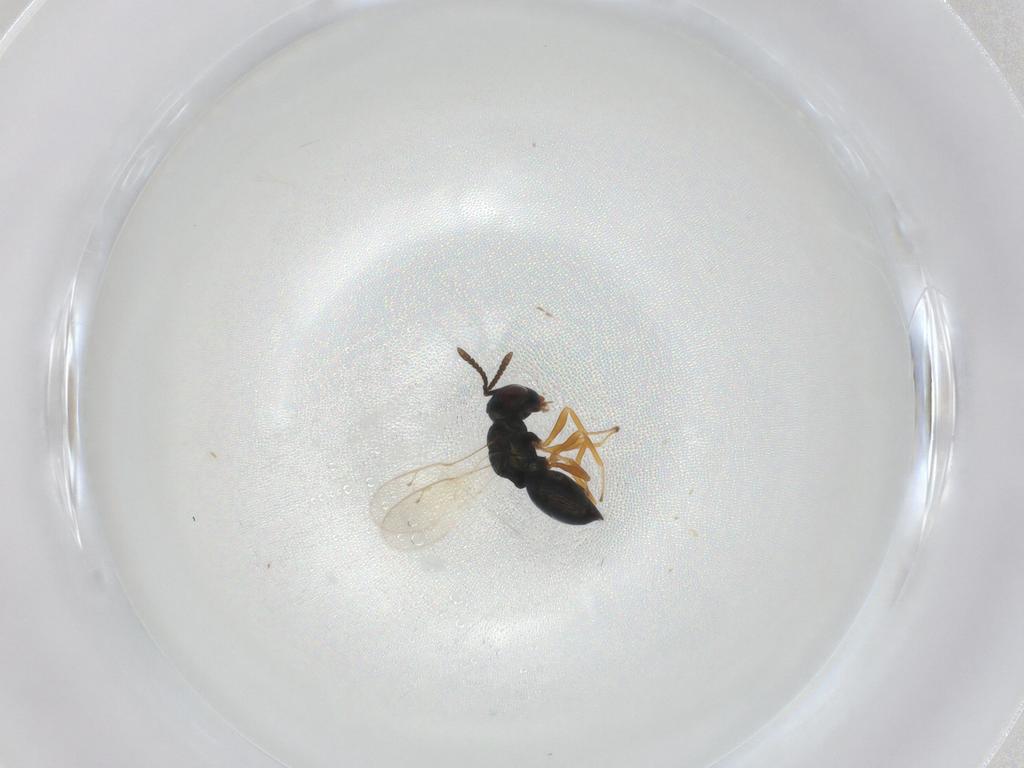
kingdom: Animalia
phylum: Arthropoda
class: Insecta
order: Hymenoptera
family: Pteromalidae
